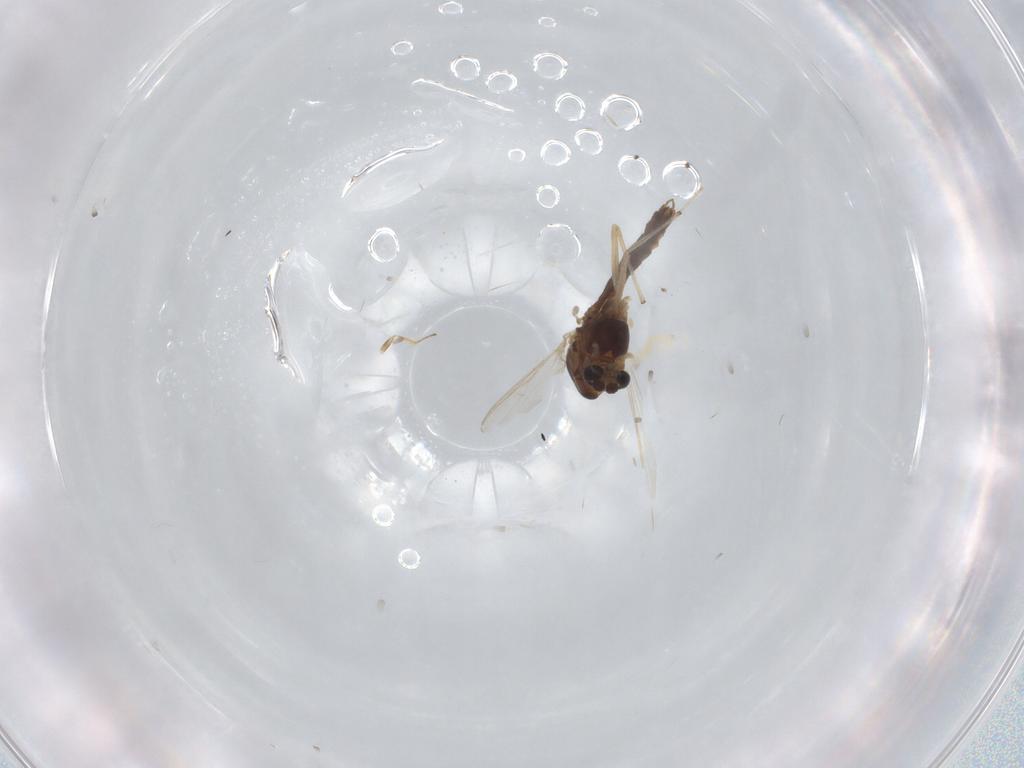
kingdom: Animalia
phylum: Arthropoda
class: Insecta
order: Diptera
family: Chironomidae
